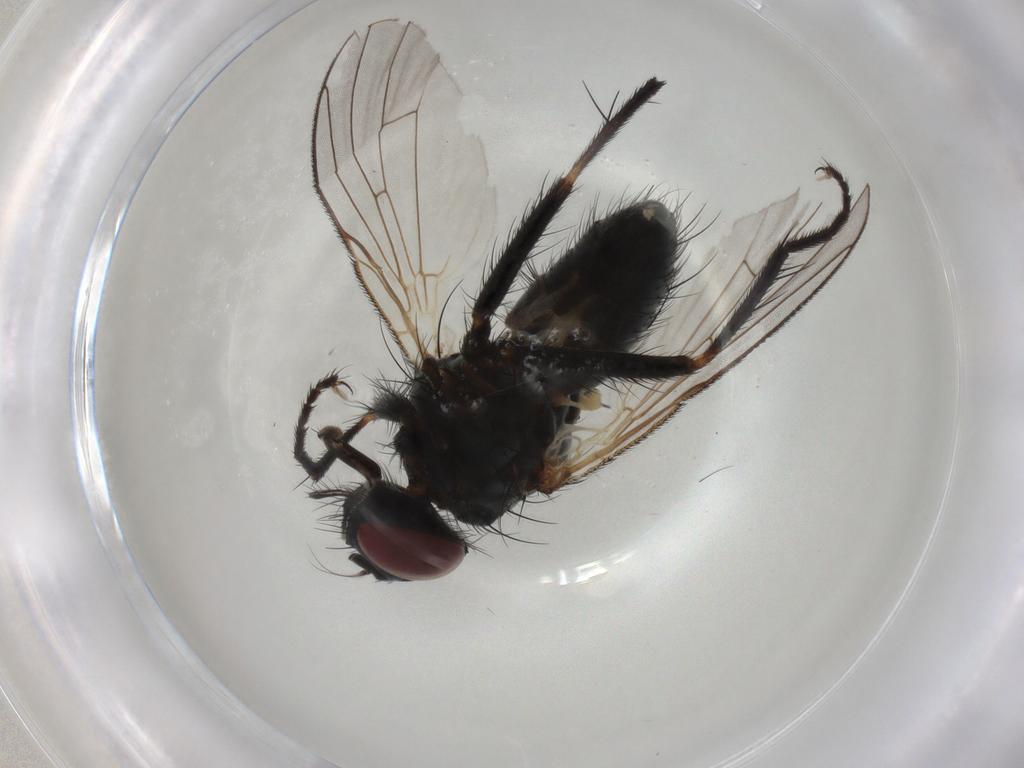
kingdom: Animalia
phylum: Arthropoda
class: Insecta
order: Diptera
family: Muscidae
